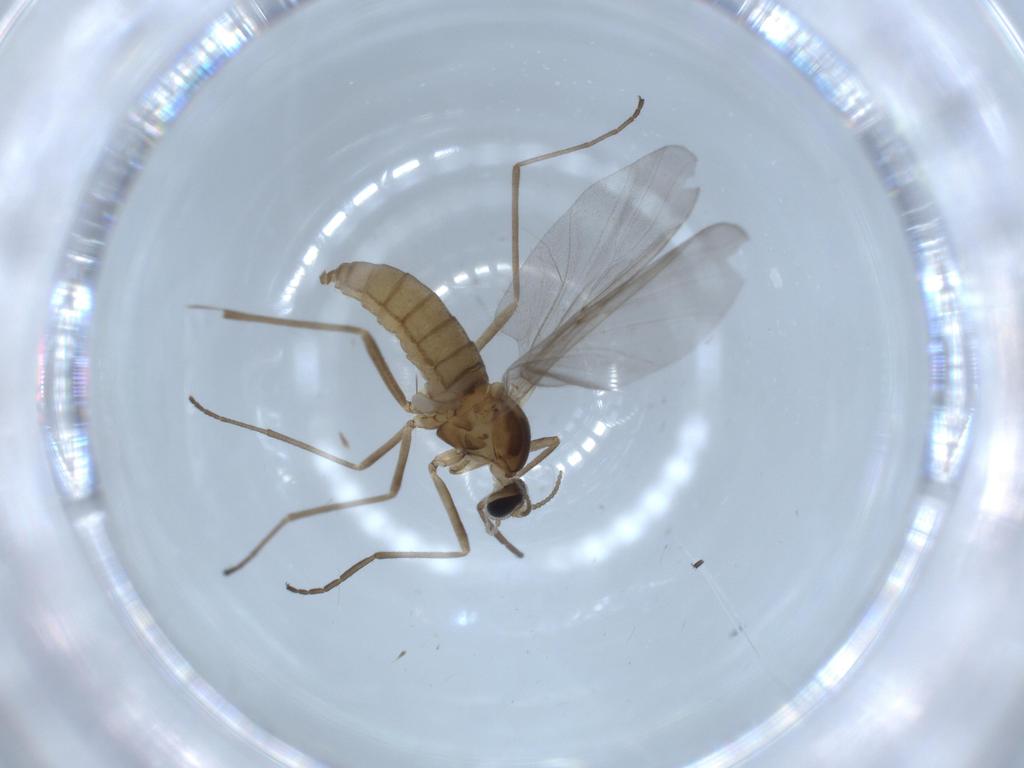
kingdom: Animalia
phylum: Arthropoda
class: Insecta
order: Diptera
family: Cecidomyiidae
